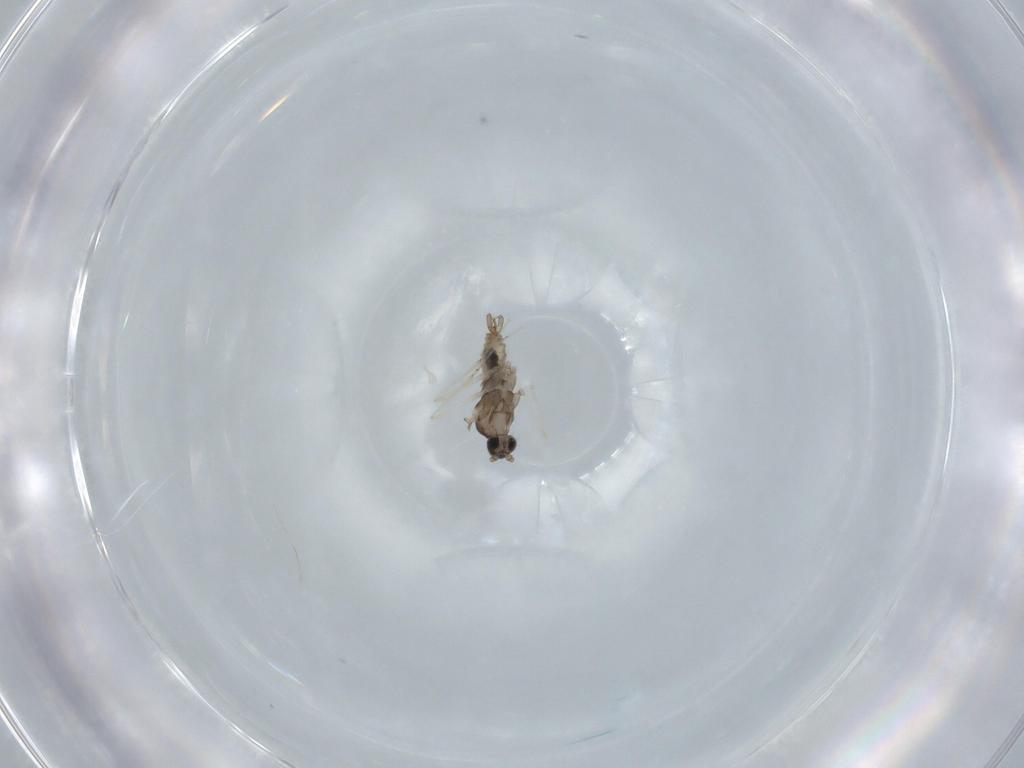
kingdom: Animalia
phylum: Arthropoda
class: Insecta
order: Diptera
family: Cecidomyiidae
